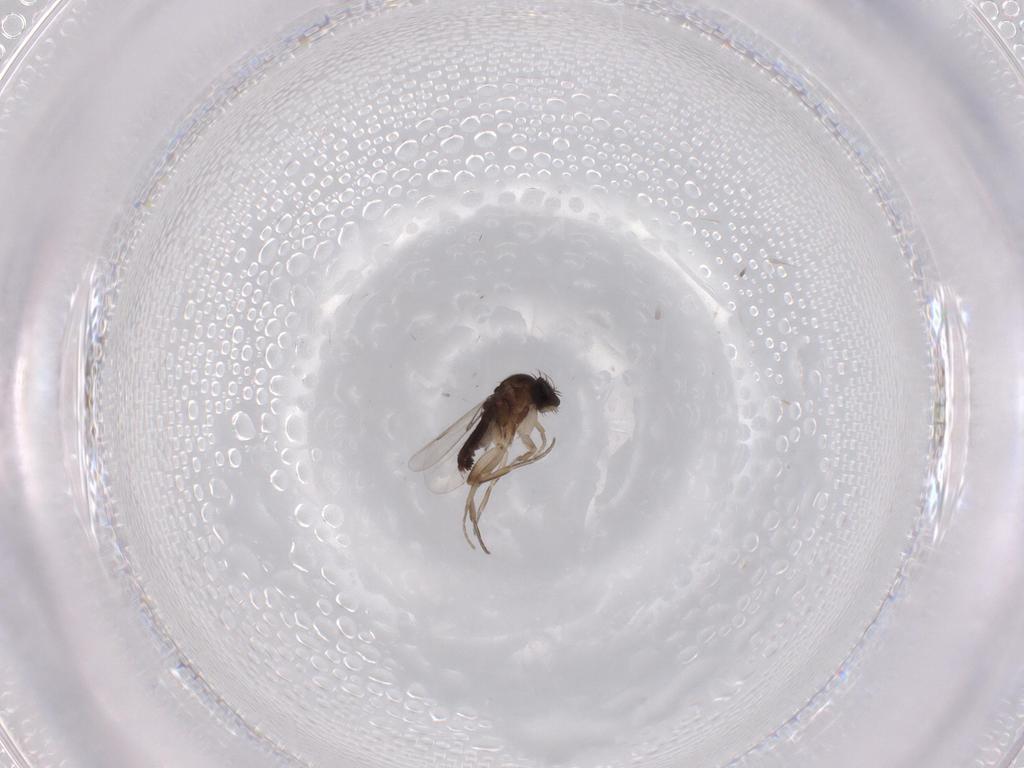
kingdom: Animalia
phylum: Arthropoda
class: Insecta
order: Diptera
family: Phoridae
